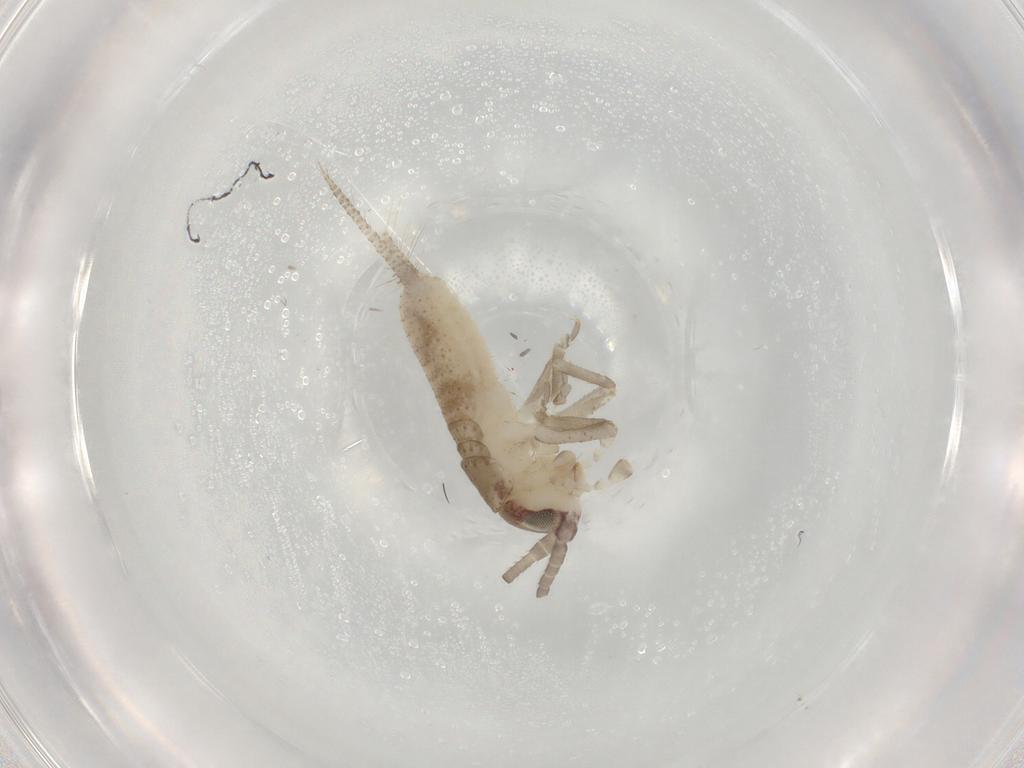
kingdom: Animalia
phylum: Arthropoda
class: Insecta
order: Orthoptera
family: Gryllidae
